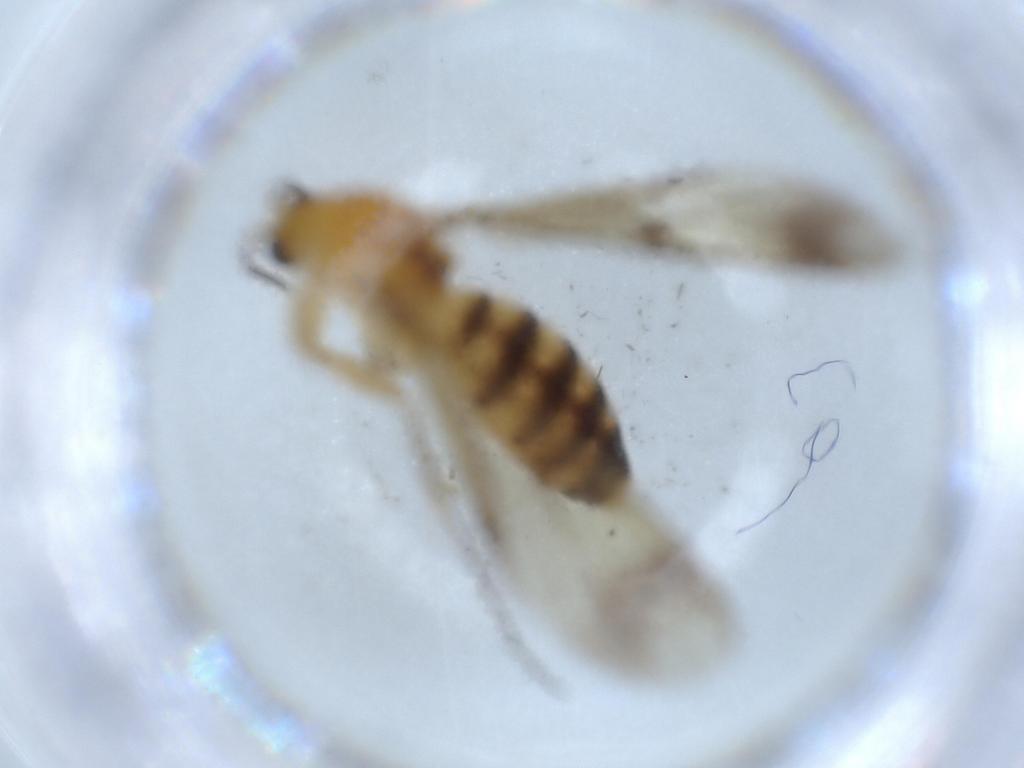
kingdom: Animalia
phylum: Arthropoda
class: Insecta
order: Diptera
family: Mycetophilidae
